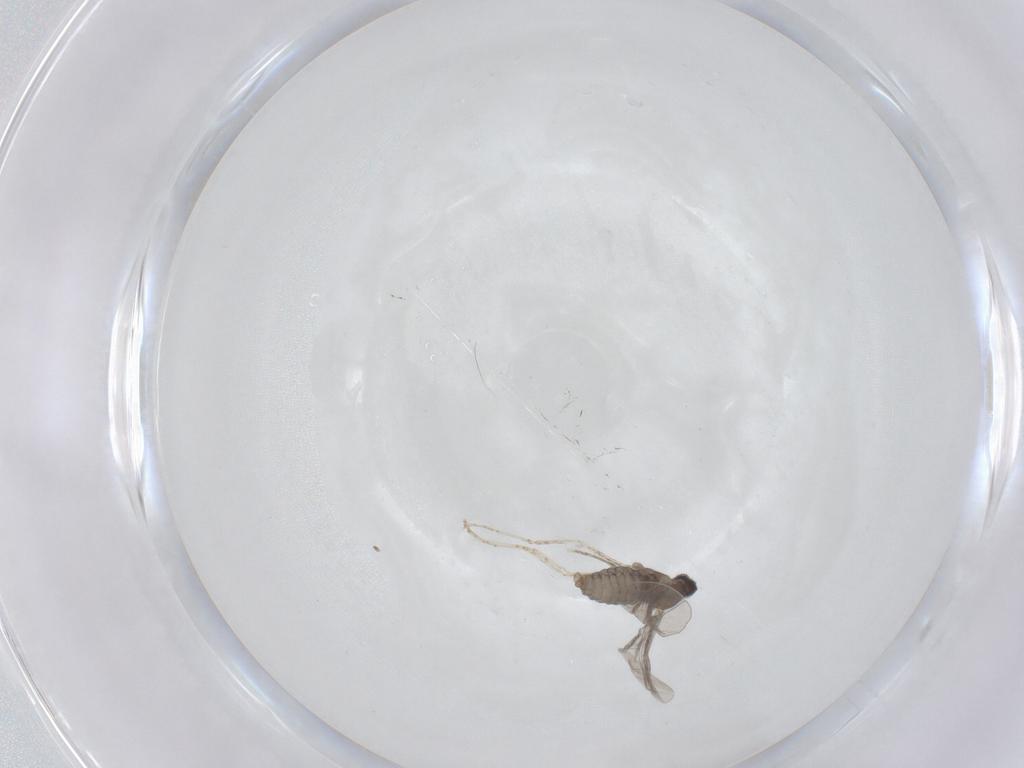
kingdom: Animalia
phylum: Arthropoda
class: Insecta
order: Diptera
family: Cecidomyiidae
